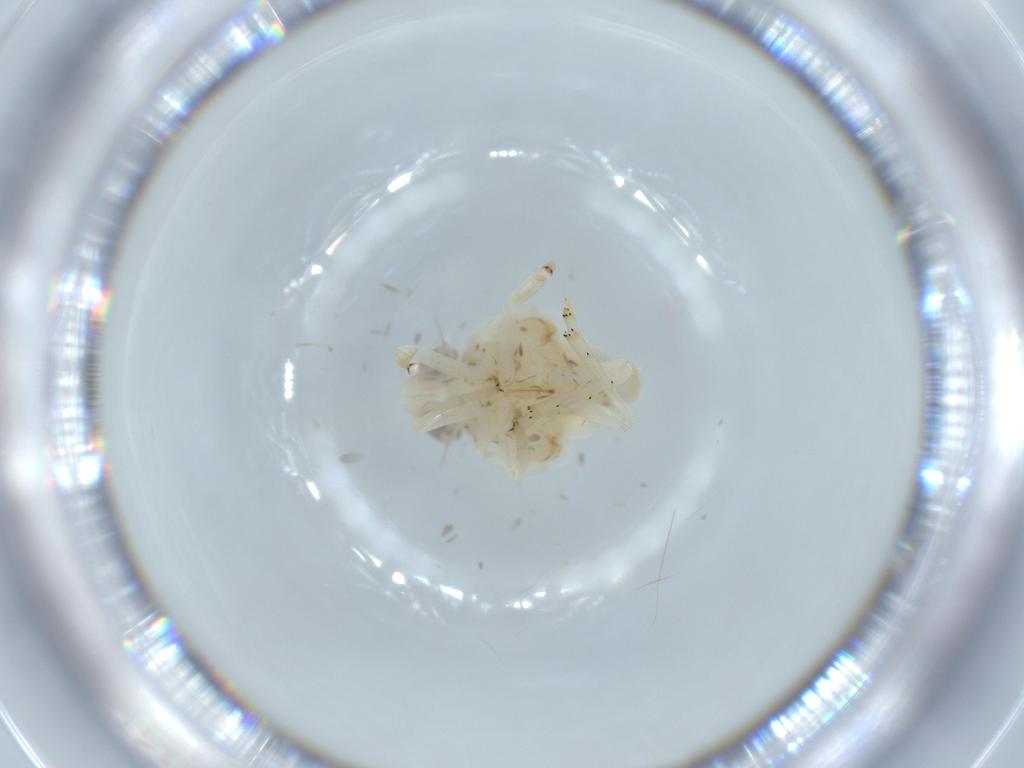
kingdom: Animalia
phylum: Arthropoda
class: Insecta
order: Hemiptera
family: Nogodinidae
